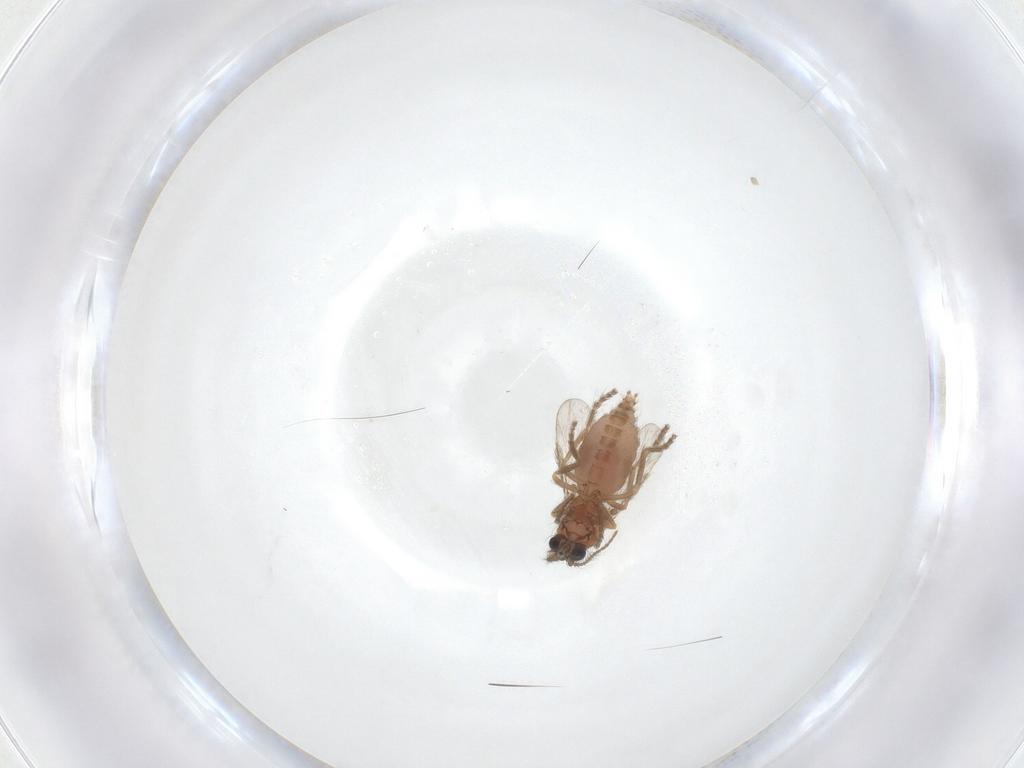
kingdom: Animalia
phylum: Arthropoda
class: Insecta
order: Diptera
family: Ceratopogonidae
